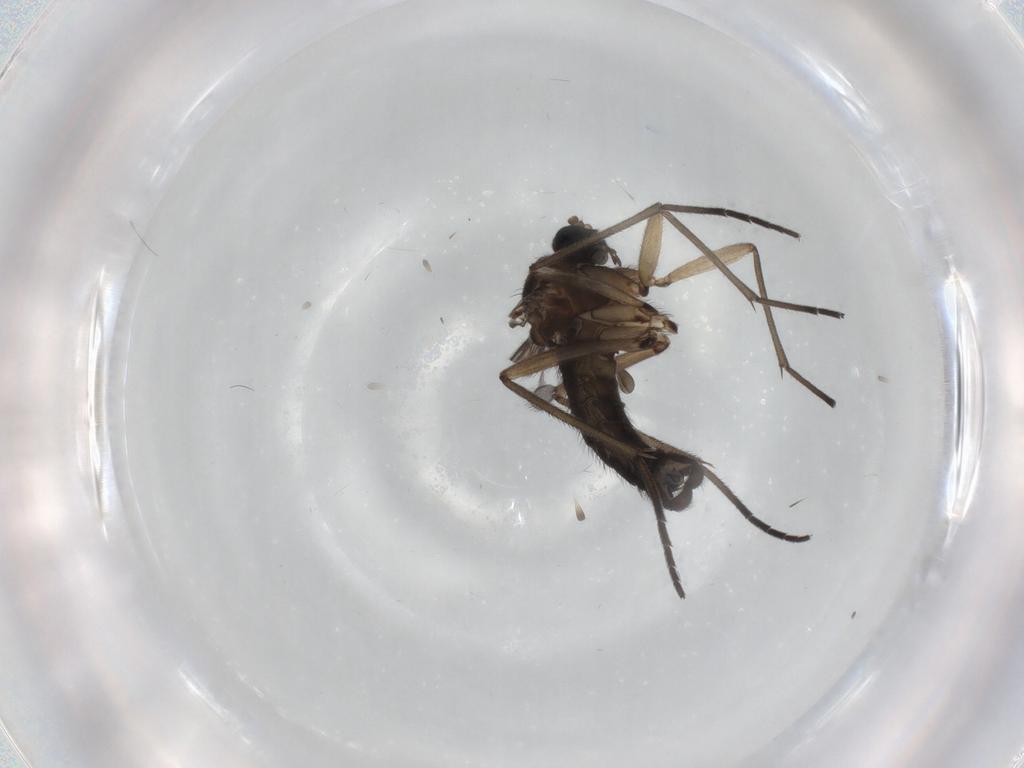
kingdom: Animalia
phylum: Arthropoda
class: Insecta
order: Diptera
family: Sciaridae
